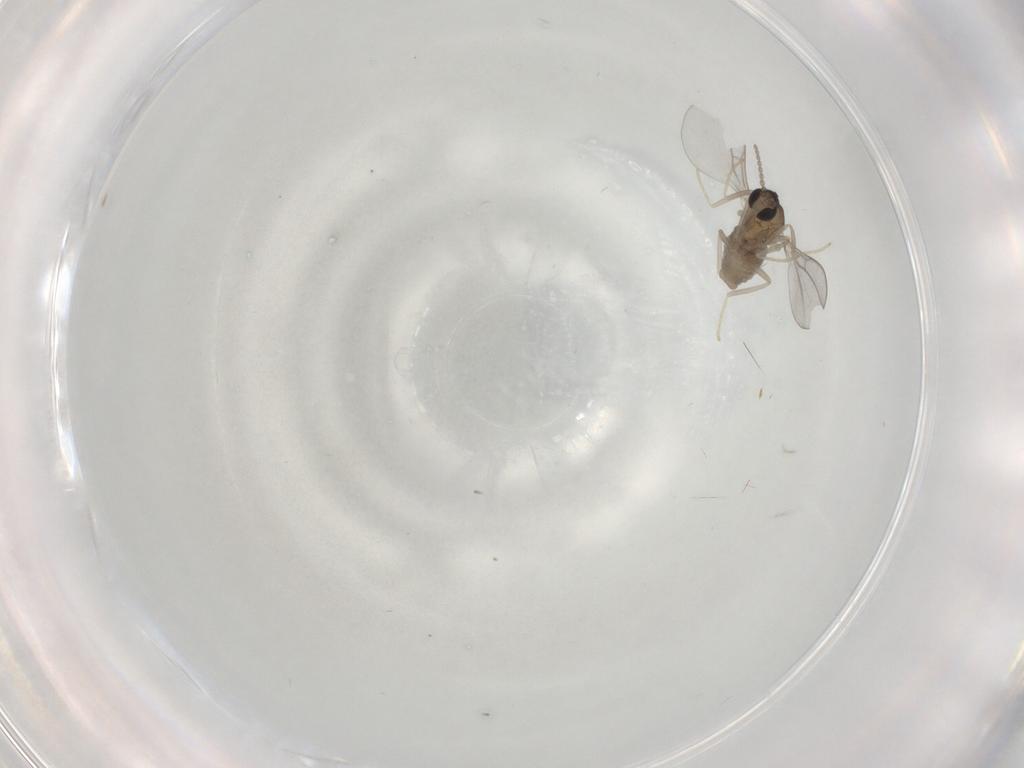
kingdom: Animalia
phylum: Arthropoda
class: Insecta
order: Diptera
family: Cecidomyiidae
